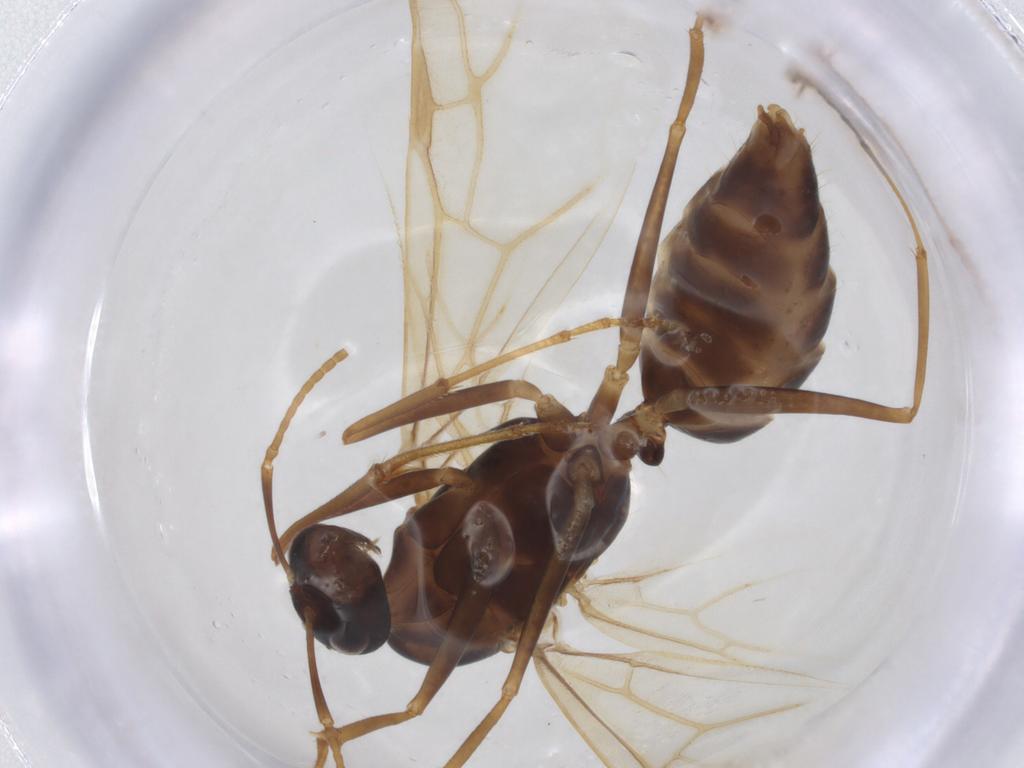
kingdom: Animalia
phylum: Arthropoda
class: Insecta
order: Hymenoptera
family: Formicidae
